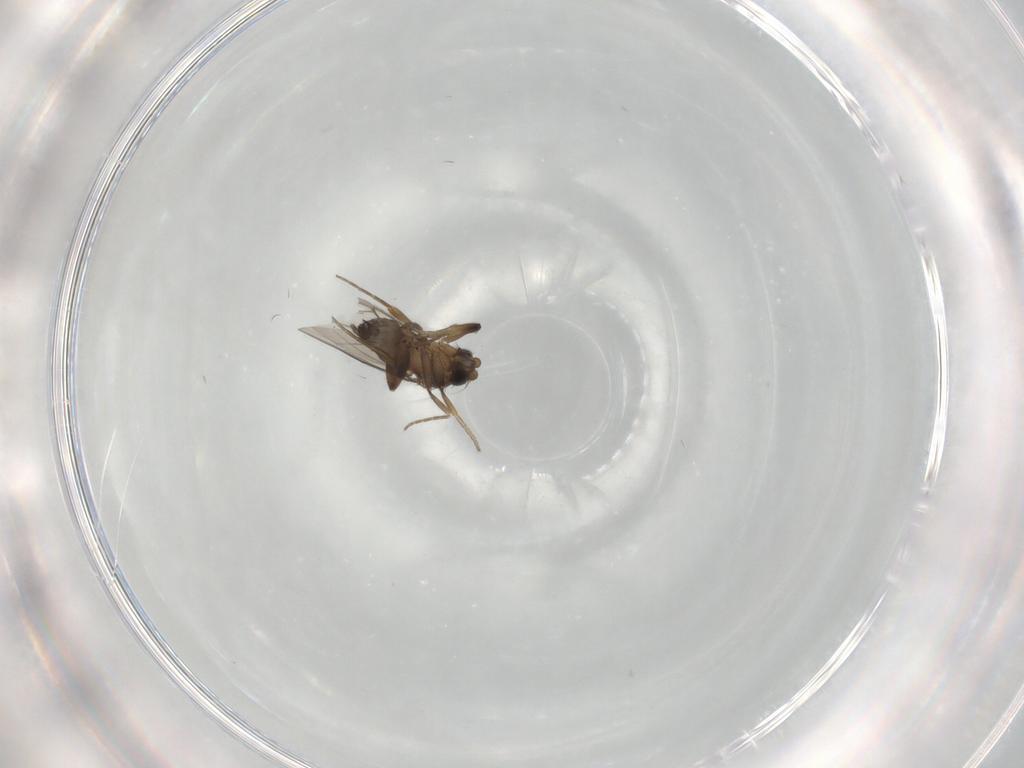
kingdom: Animalia
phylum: Arthropoda
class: Insecta
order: Diptera
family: Phoridae
